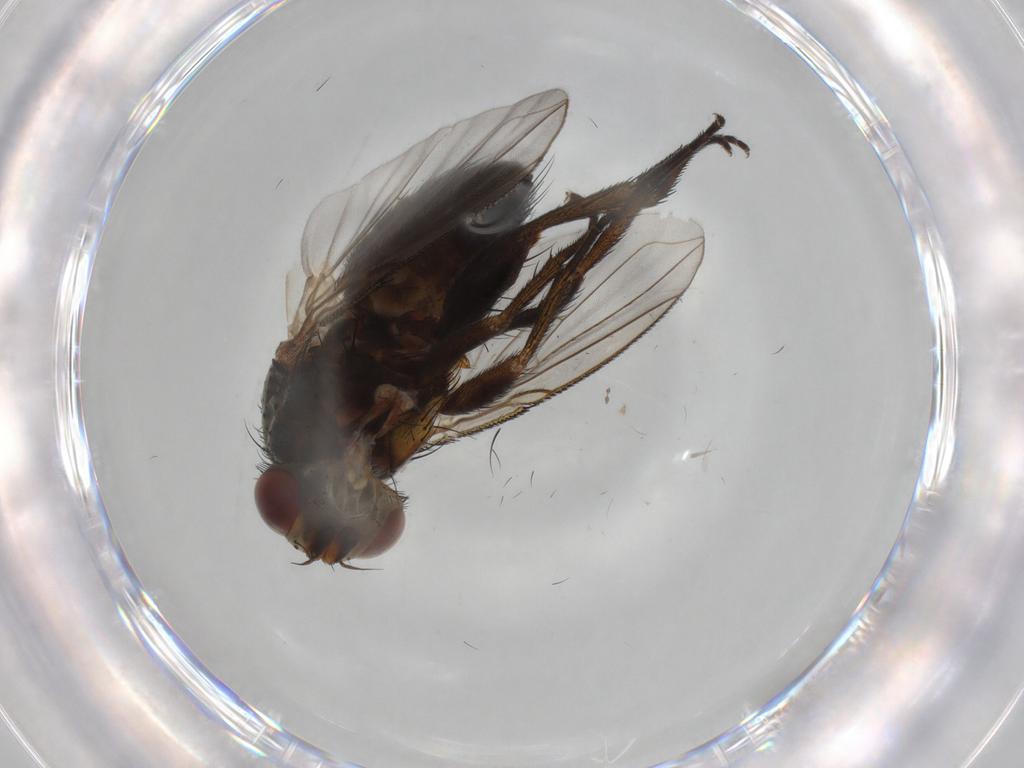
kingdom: Animalia
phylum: Arthropoda
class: Insecta
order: Diptera
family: Tachinidae
